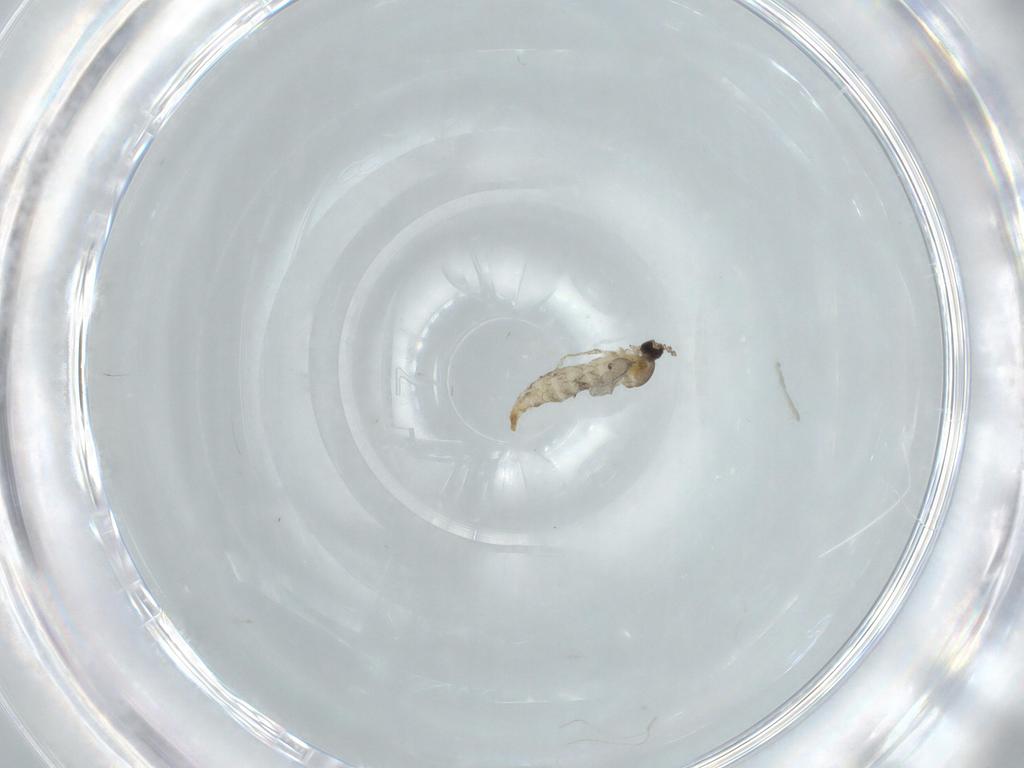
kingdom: Animalia
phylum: Arthropoda
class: Insecta
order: Diptera
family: Cecidomyiidae
